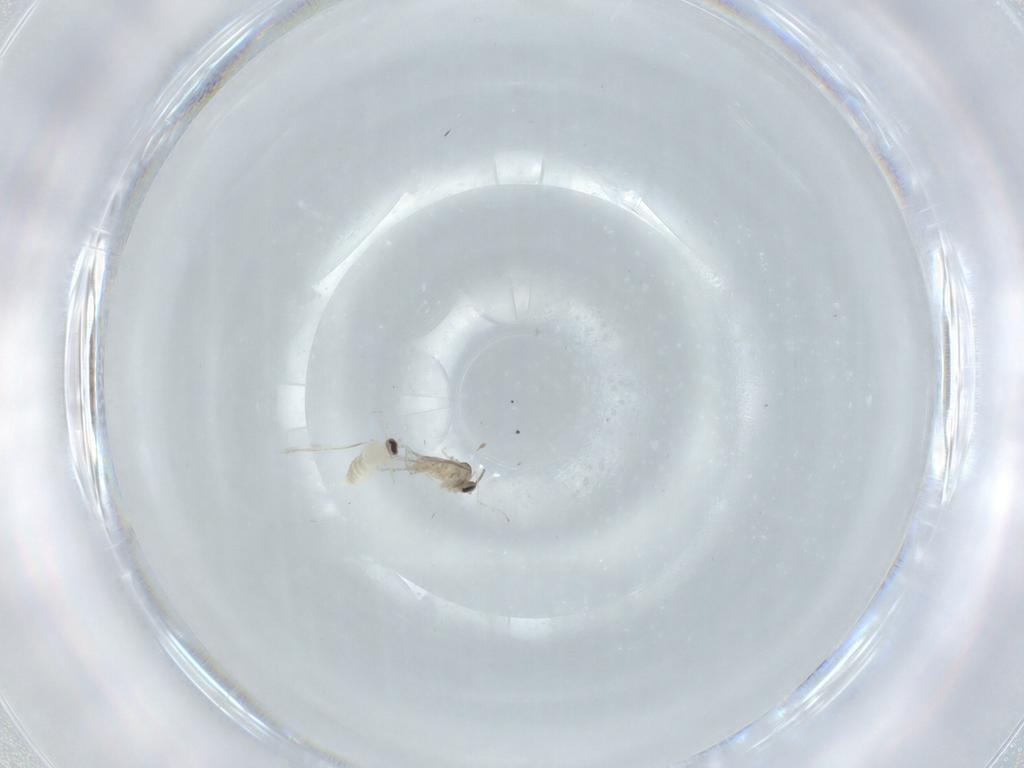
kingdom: Animalia
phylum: Arthropoda
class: Insecta
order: Diptera
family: Cecidomyiidae
